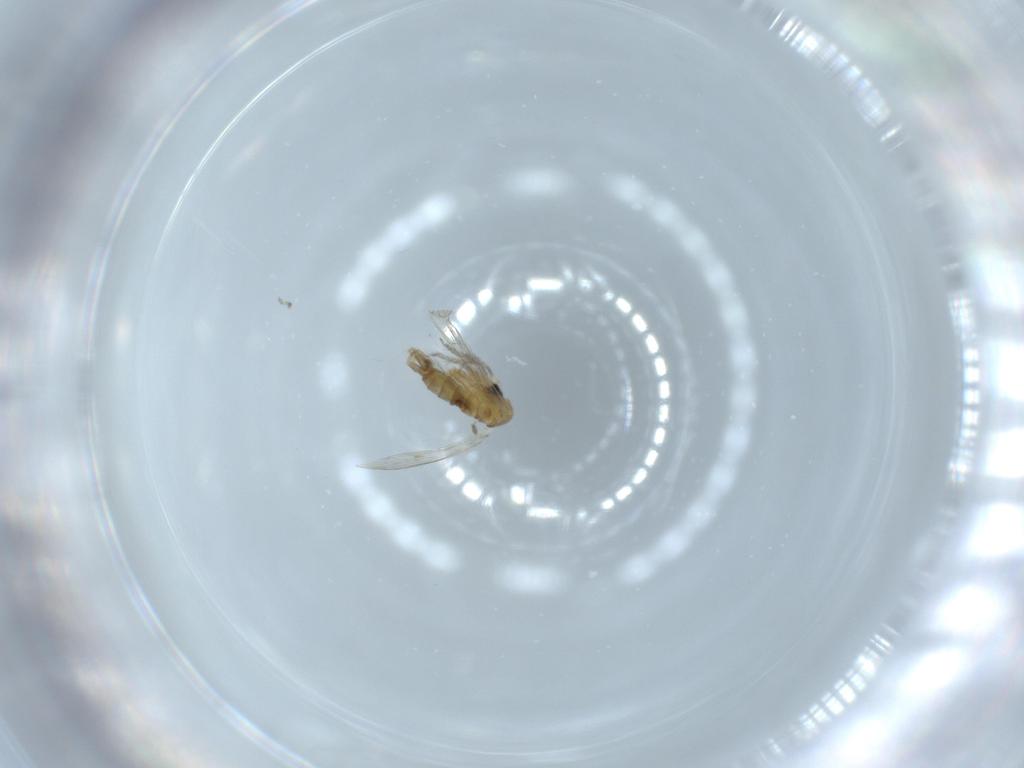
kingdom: Animalia
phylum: Arthropoda
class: Insecta
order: Diptera
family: Psychodidae
